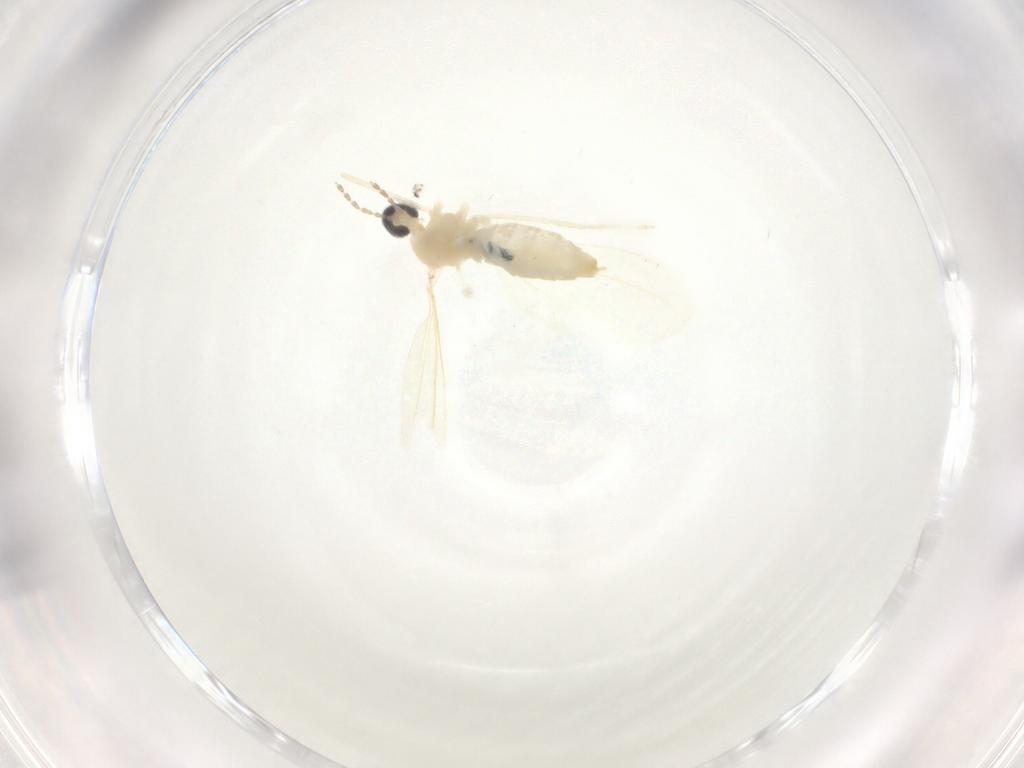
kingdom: Animalia
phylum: Arthropoda
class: Insecta
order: Diptera
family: Cecidomyiidae
